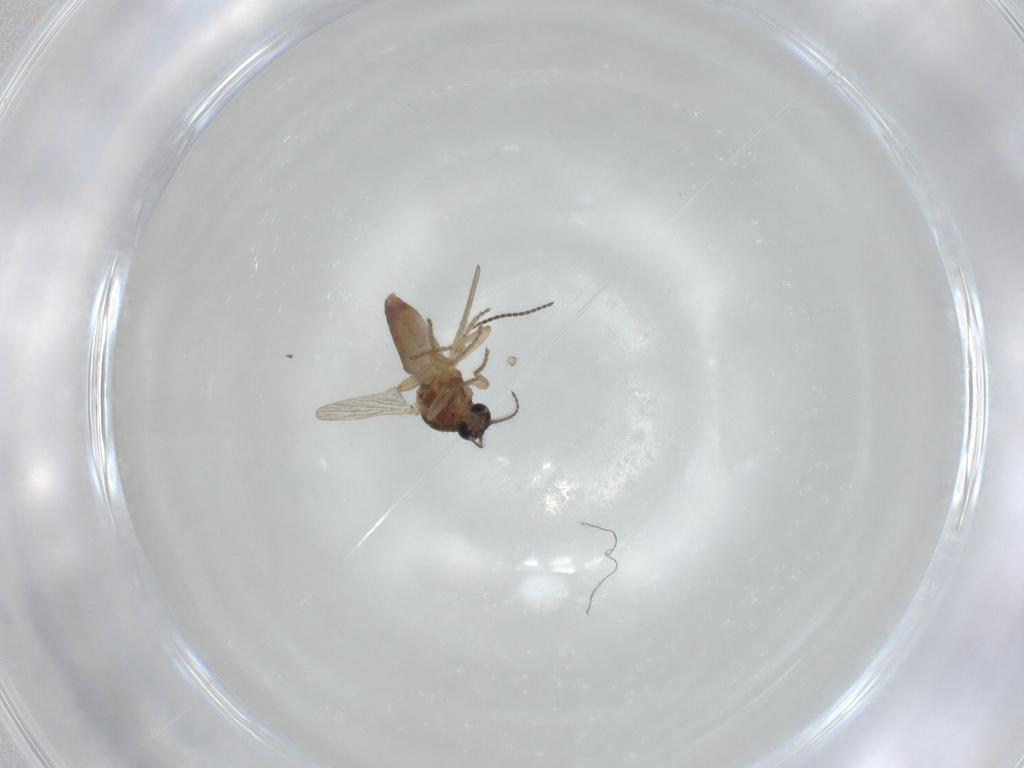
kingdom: Animalia
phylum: Arthropoda
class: Insecta
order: Diptera
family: Ceratopogonidae
